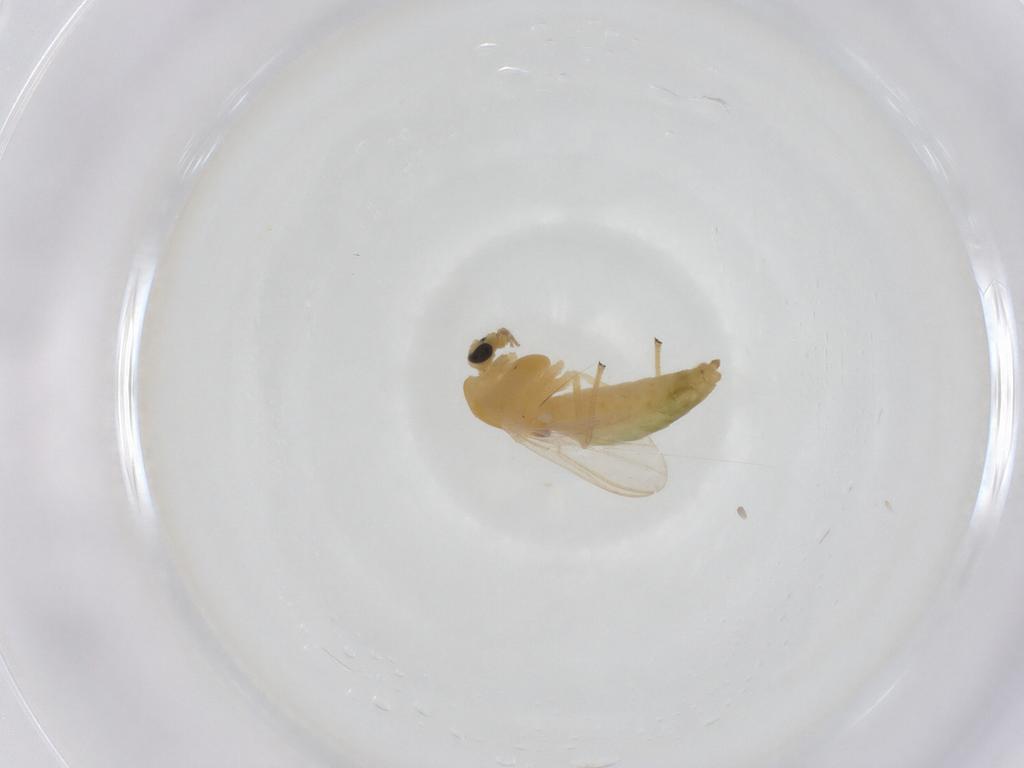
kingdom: Animalia
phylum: Arthropoda
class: Insecta
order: Diptera
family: Chironomidae
